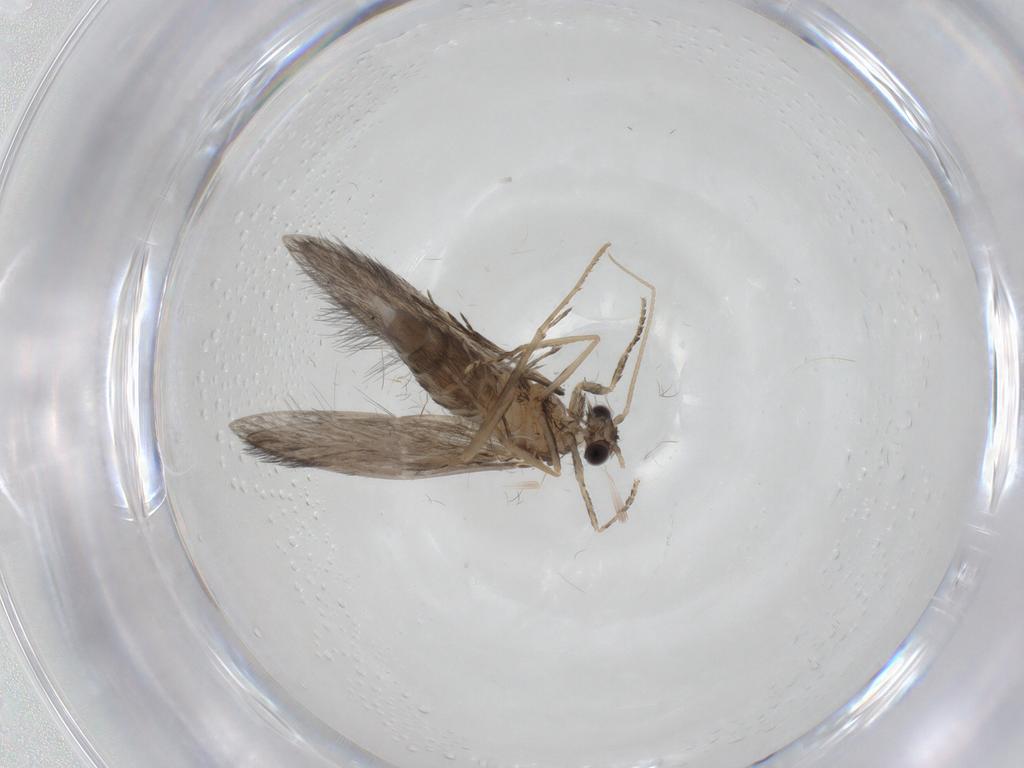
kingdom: Animalia
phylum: Arthropoda
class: Insecta
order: Trichoptera
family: Hydroptilidae
